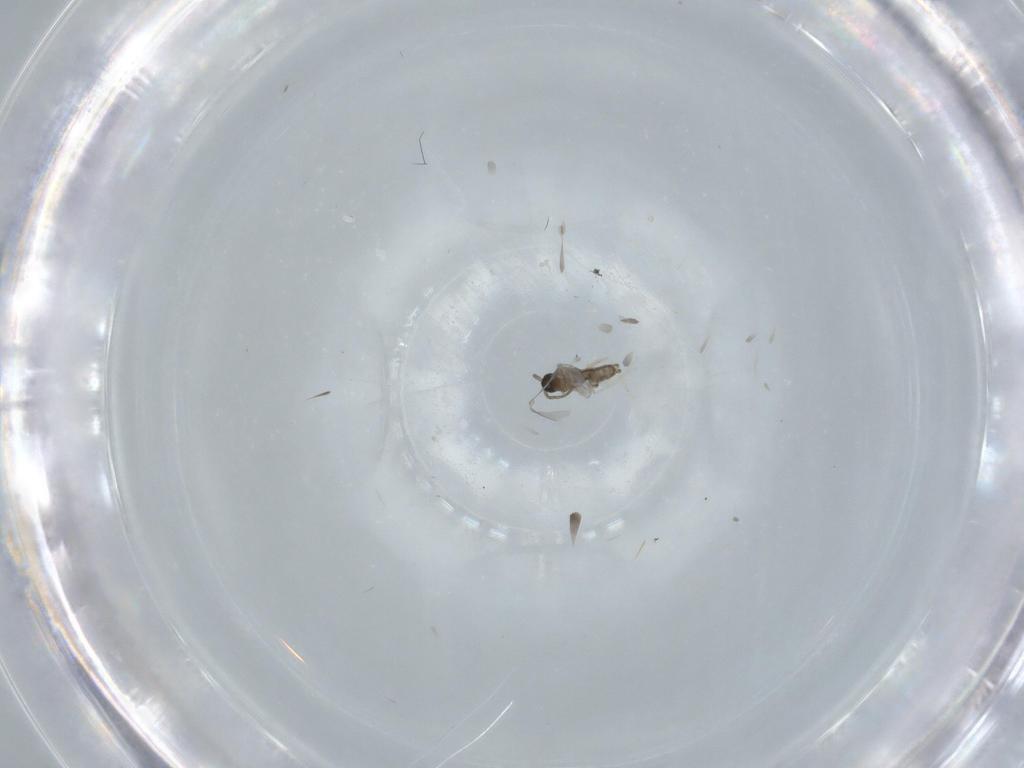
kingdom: Animalia
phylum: Arthropoda
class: Insecta
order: Diptera
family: Cecidomyiidae
